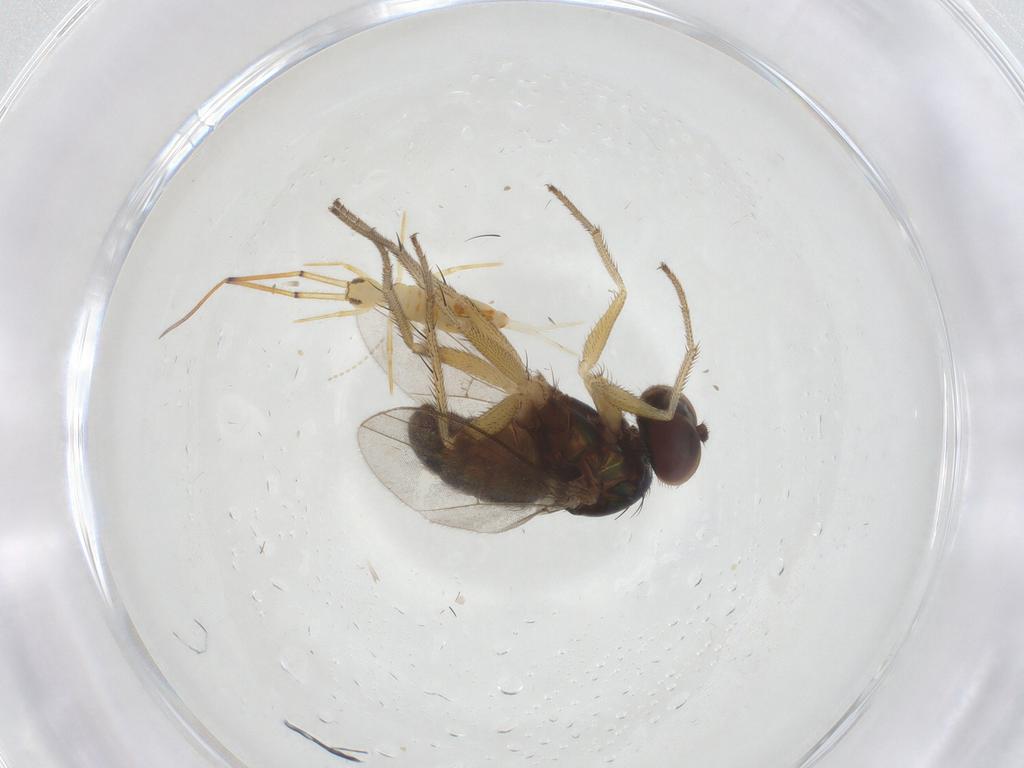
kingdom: Animalia
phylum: Arthropoda
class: Insecta
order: Diptera
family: Dolichopodidae
